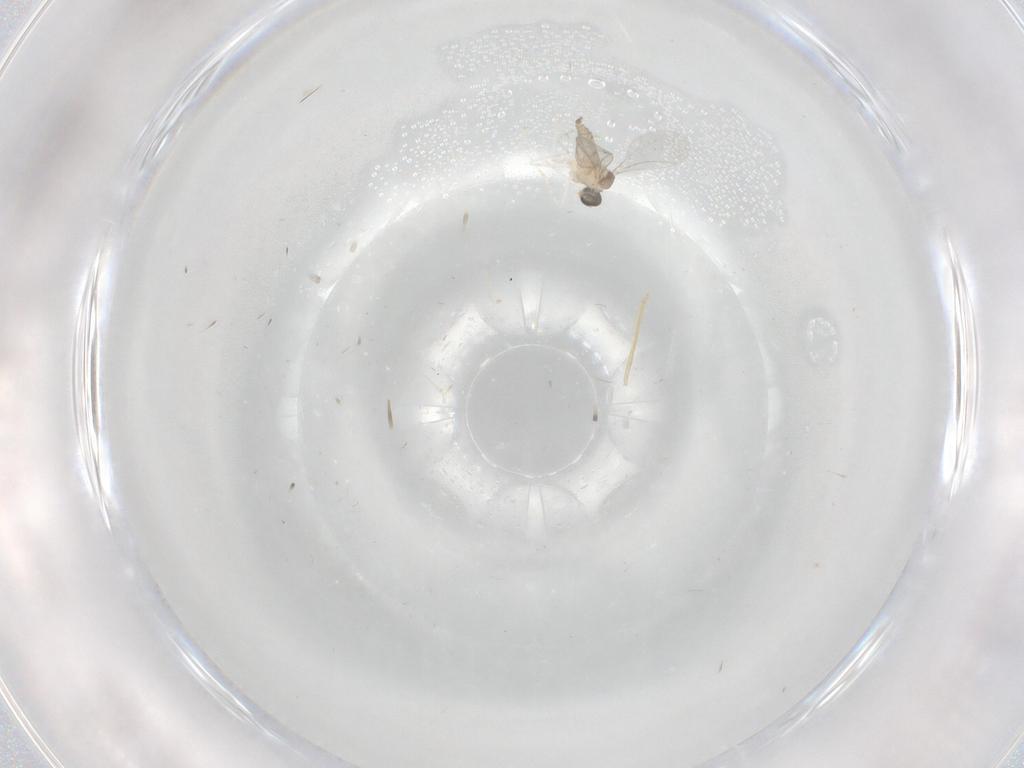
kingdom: Animalia
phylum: Arthropoda
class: Insecta
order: Diptera
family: Cecidomyiidae
